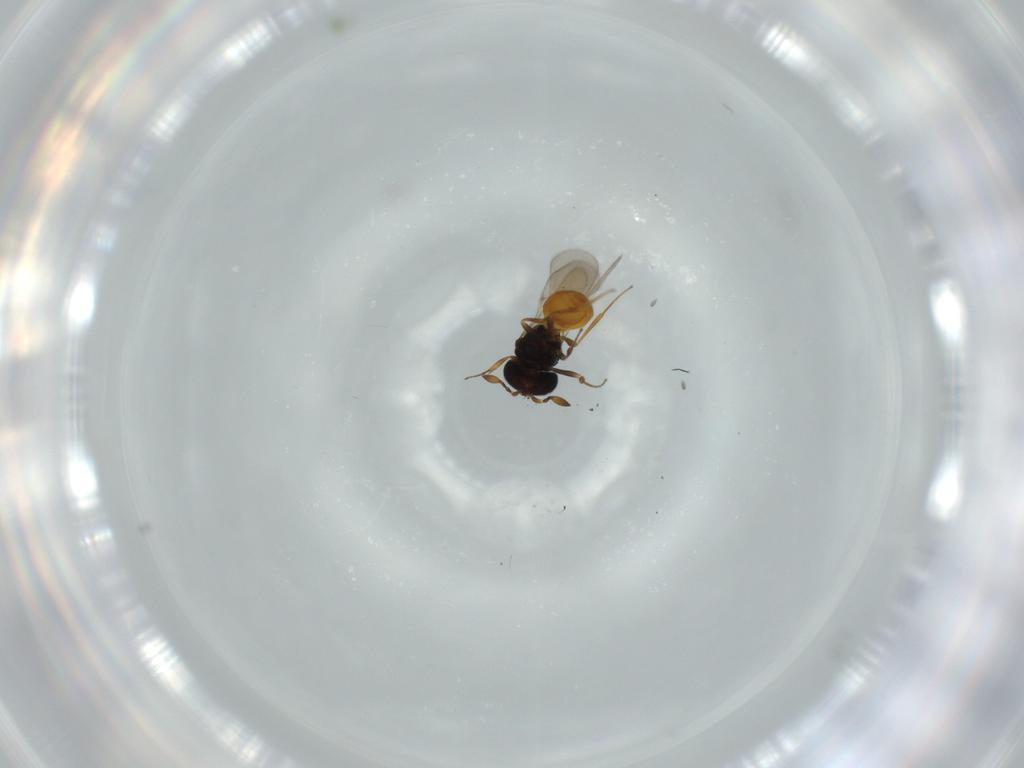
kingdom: Animalia
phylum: Arthropoda
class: Insecta
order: Hymenoptera
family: Scelionidae
